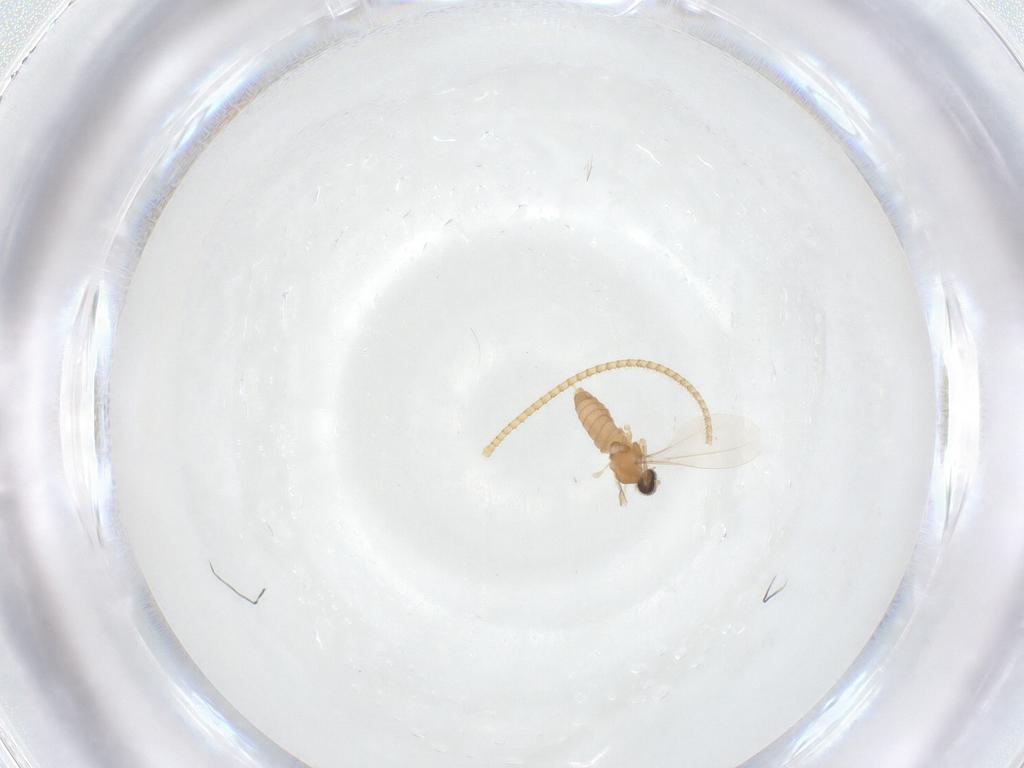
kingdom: Animalia
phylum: Arthropoda
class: Insecta
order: Diptera
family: Cecidomyiidae
